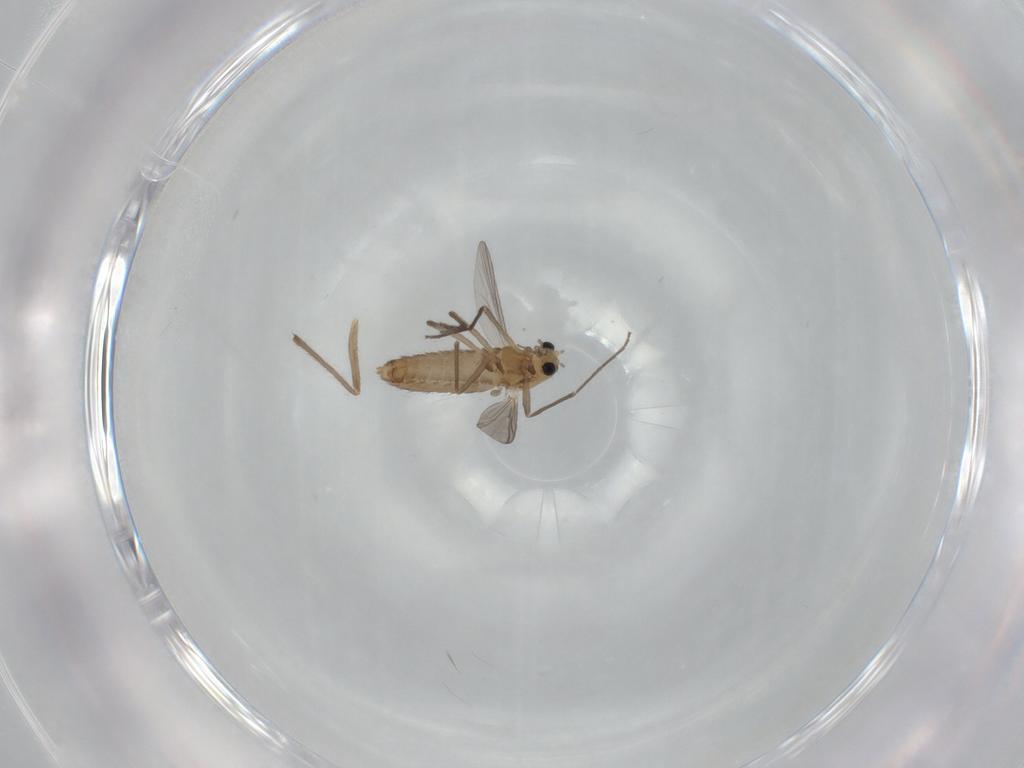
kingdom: Animalia
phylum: Arthropoda
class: Insecta
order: Diptera
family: Chironomidae
